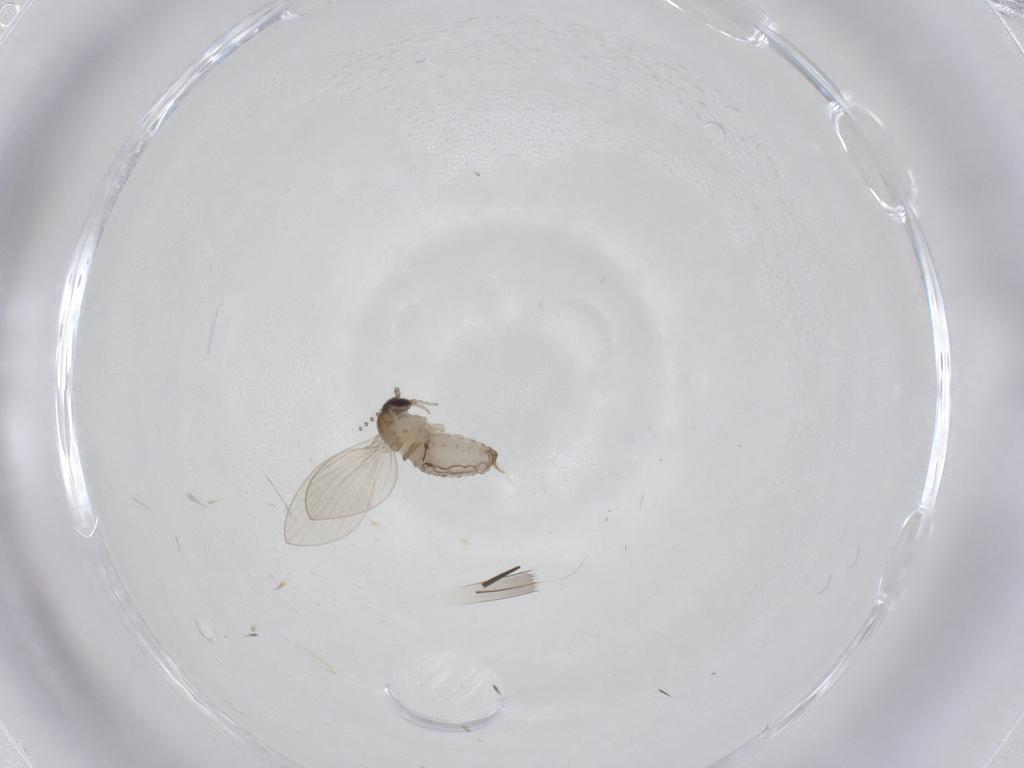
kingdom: Animalia
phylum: Arthropoda
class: Insecta
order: Diptera
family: Psychodidae
